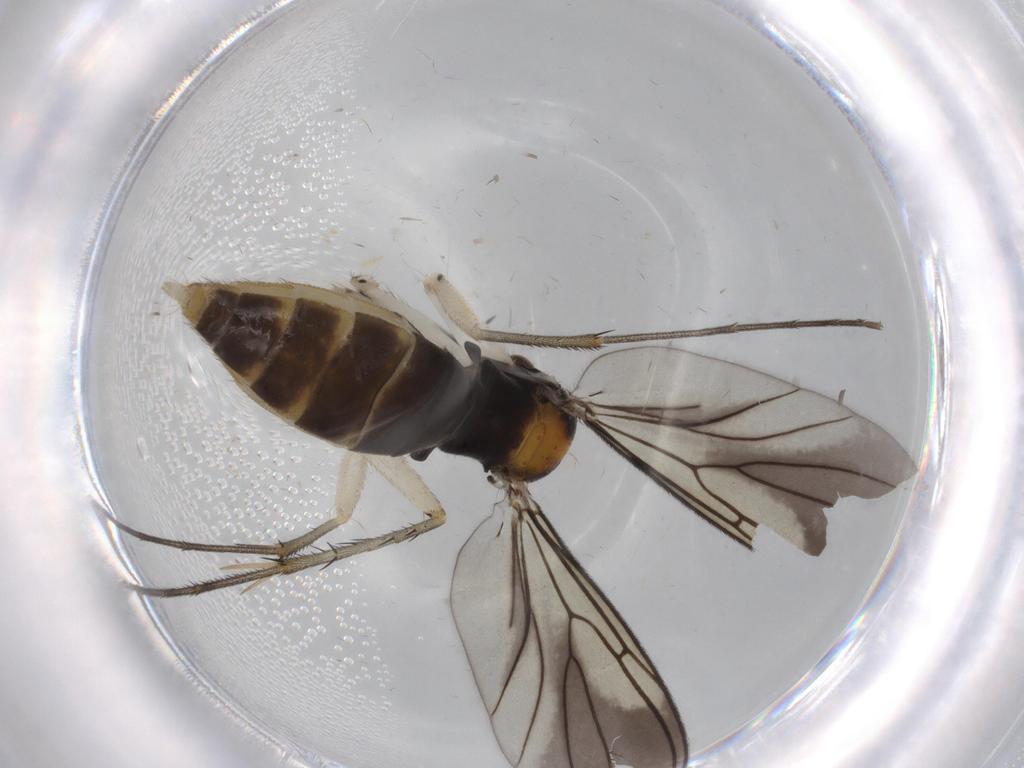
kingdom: Animalia
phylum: Arthropoda
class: Insecta
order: Diptera
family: Mycetophilidae
